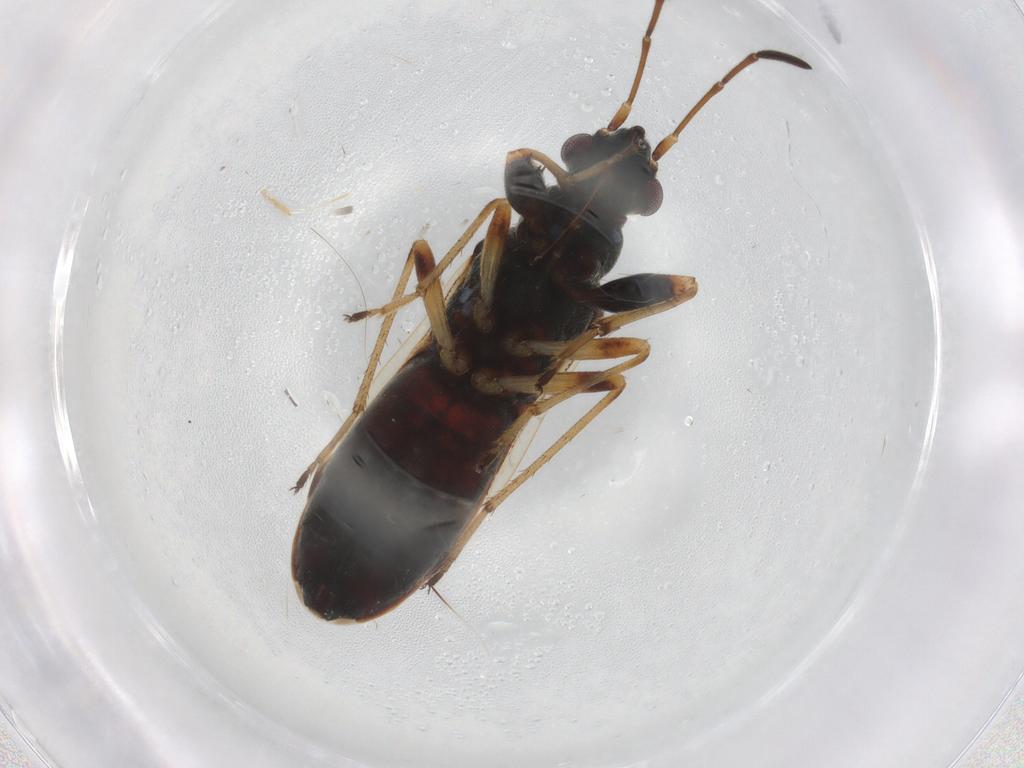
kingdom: Animalia
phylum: Arthropoda
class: Insecta
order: Hemiptera
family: Rhyparochromidae
